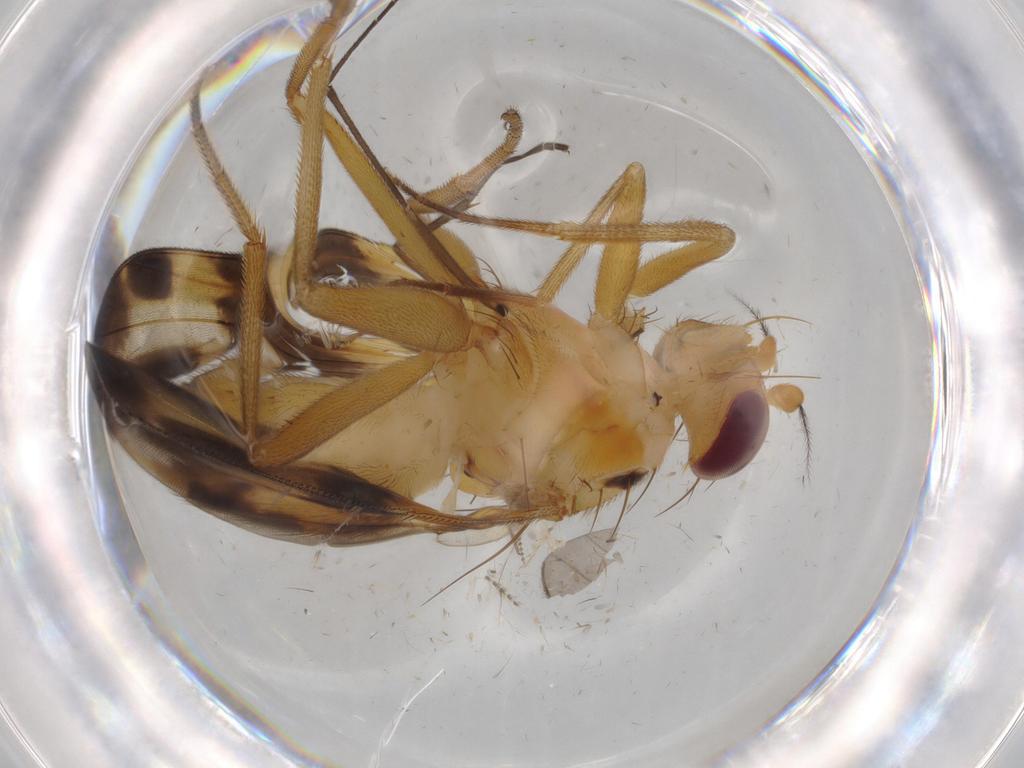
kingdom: Animalia
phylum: Arthropoda
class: Insecta
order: Diptera
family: Clusiidae
